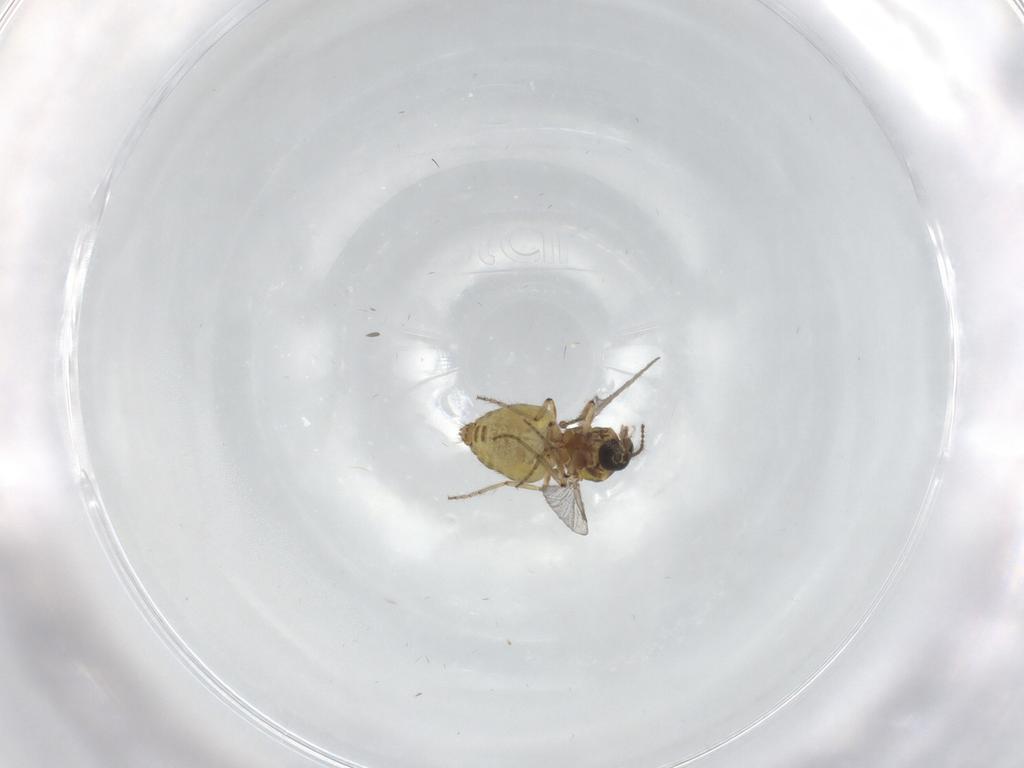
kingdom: Animalia
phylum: Arthropoda
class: Insecta
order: Diptera
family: Ceratopogonidae
